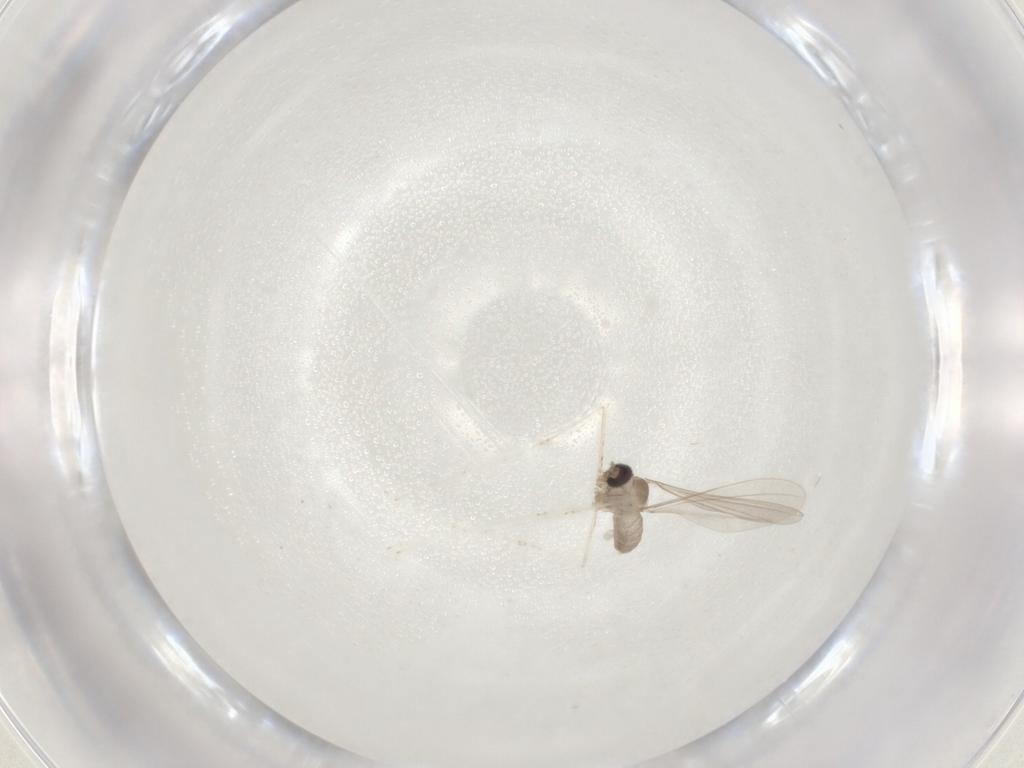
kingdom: Animalia
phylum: Arthropoda
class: Insecta
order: Diptera
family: Cecidomyiidae
